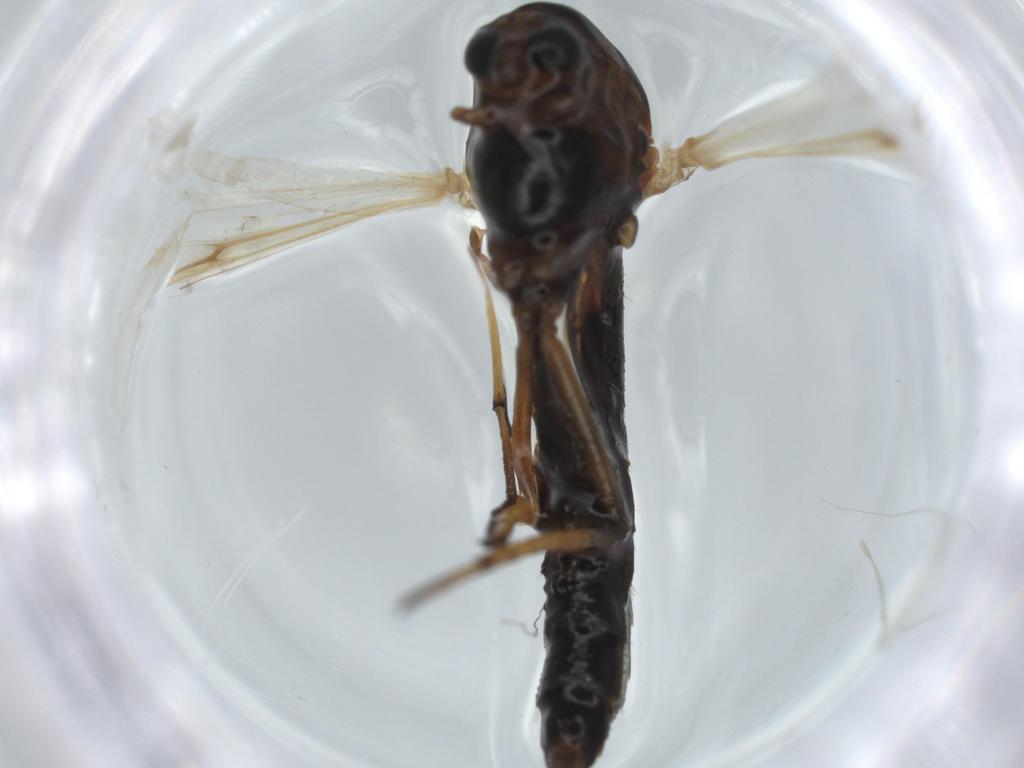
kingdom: Animalia
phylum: Arthropoda
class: Insecta
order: Diptera
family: Chironomidae
